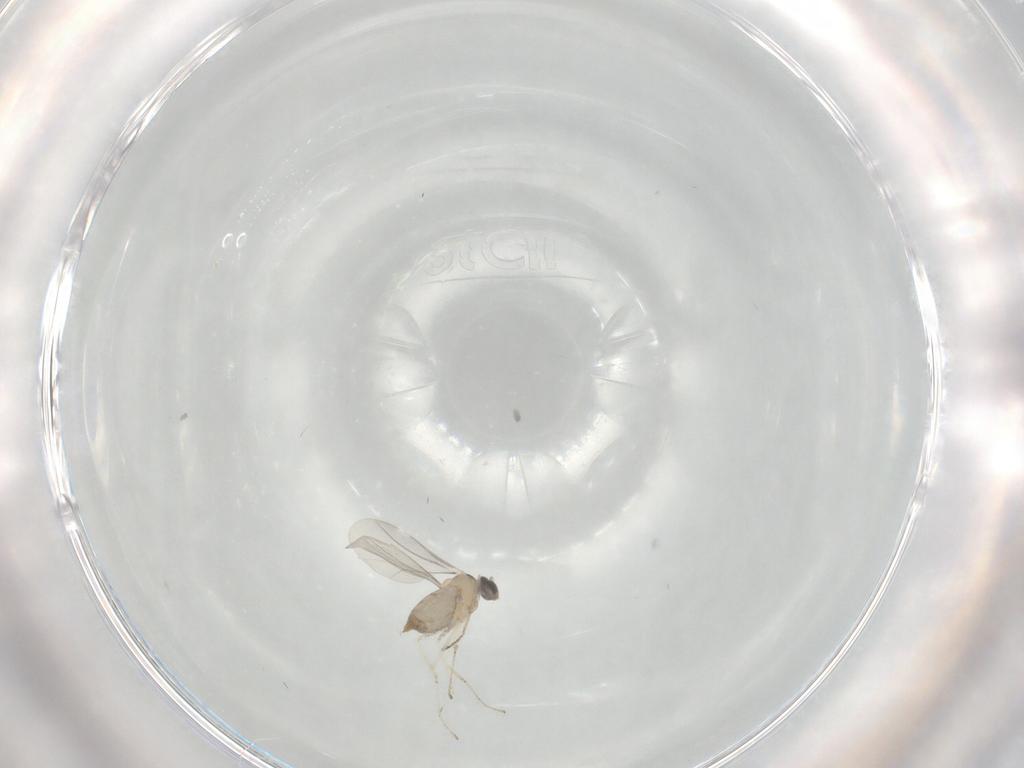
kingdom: Animalia
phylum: Arthropoda
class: Insecta
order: Diptera
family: Cecidomyiidae
